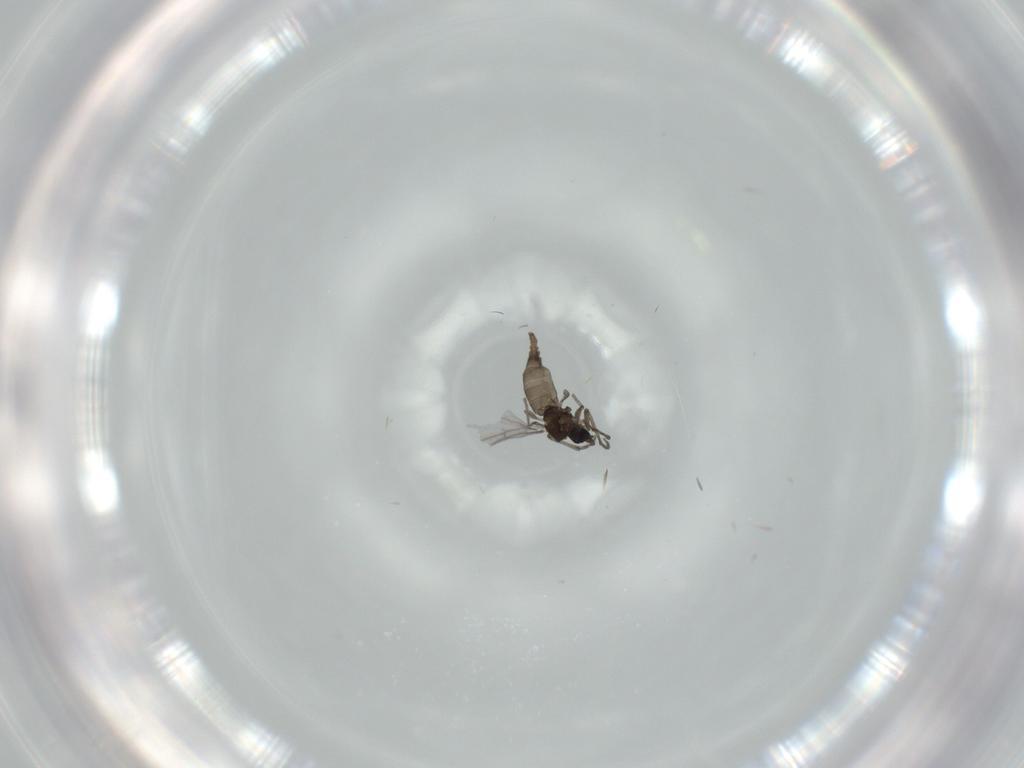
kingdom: Animalia
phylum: Arthropoda
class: Insecta
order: Diptera
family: Sciaridae
